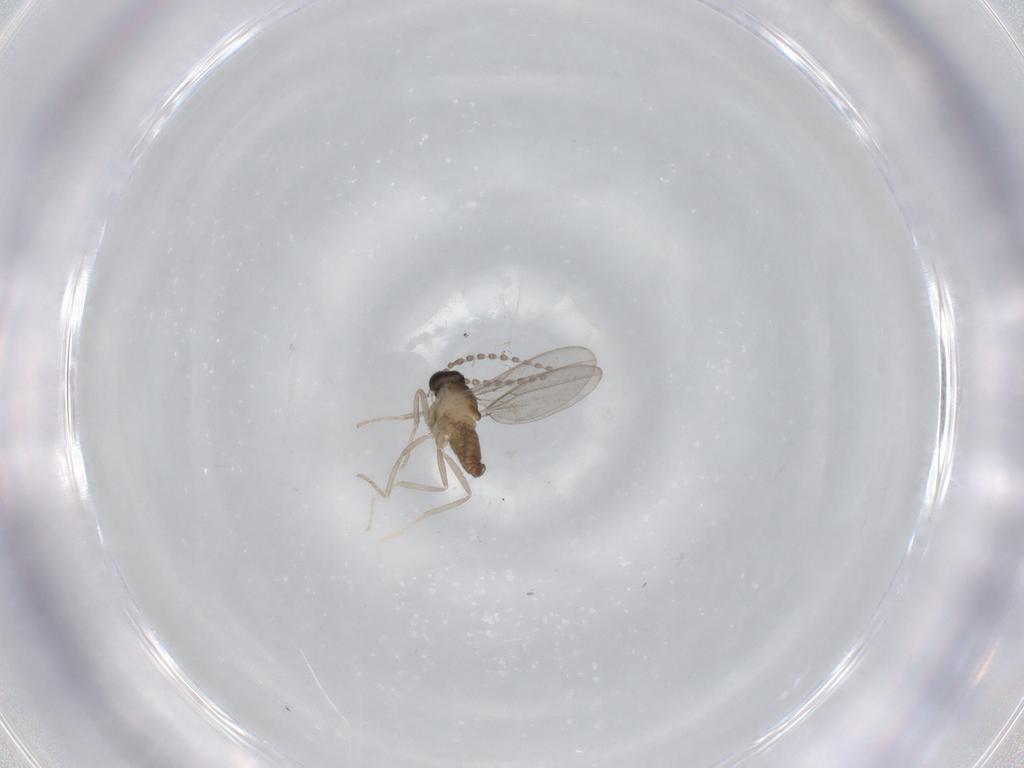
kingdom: Animalia
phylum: Arthropoda
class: Insecta
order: Diptera
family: Cecidomyiidae
